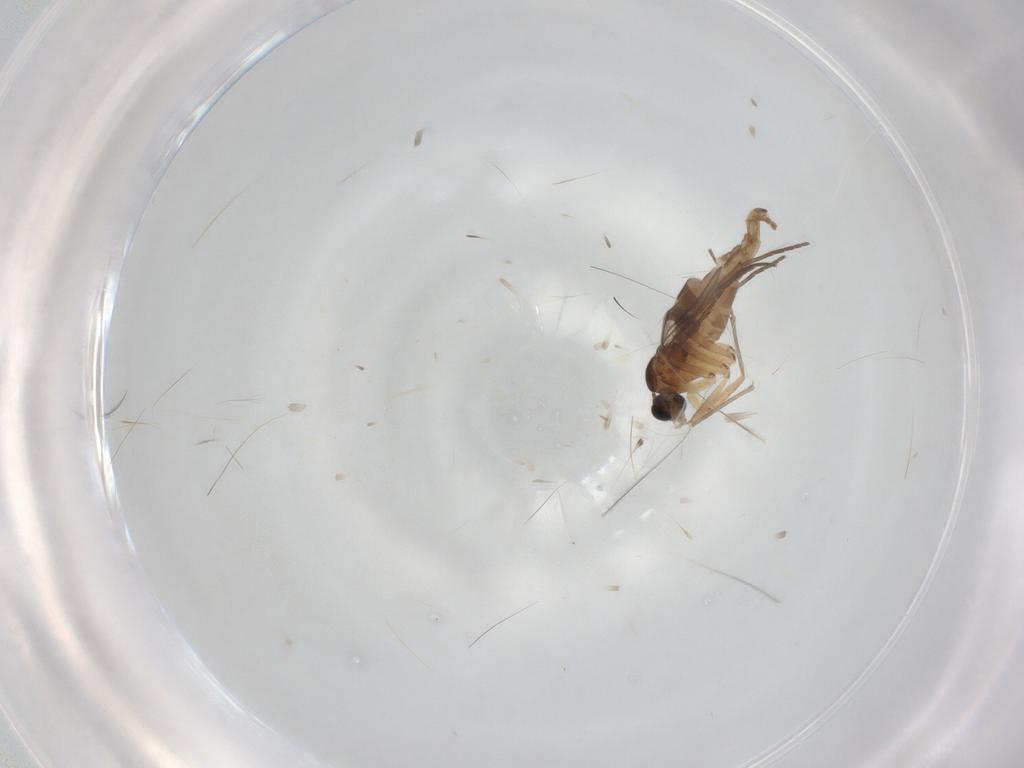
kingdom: Animalia
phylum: Arthropoda
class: Insecta
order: Diptera
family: Sciaridae
